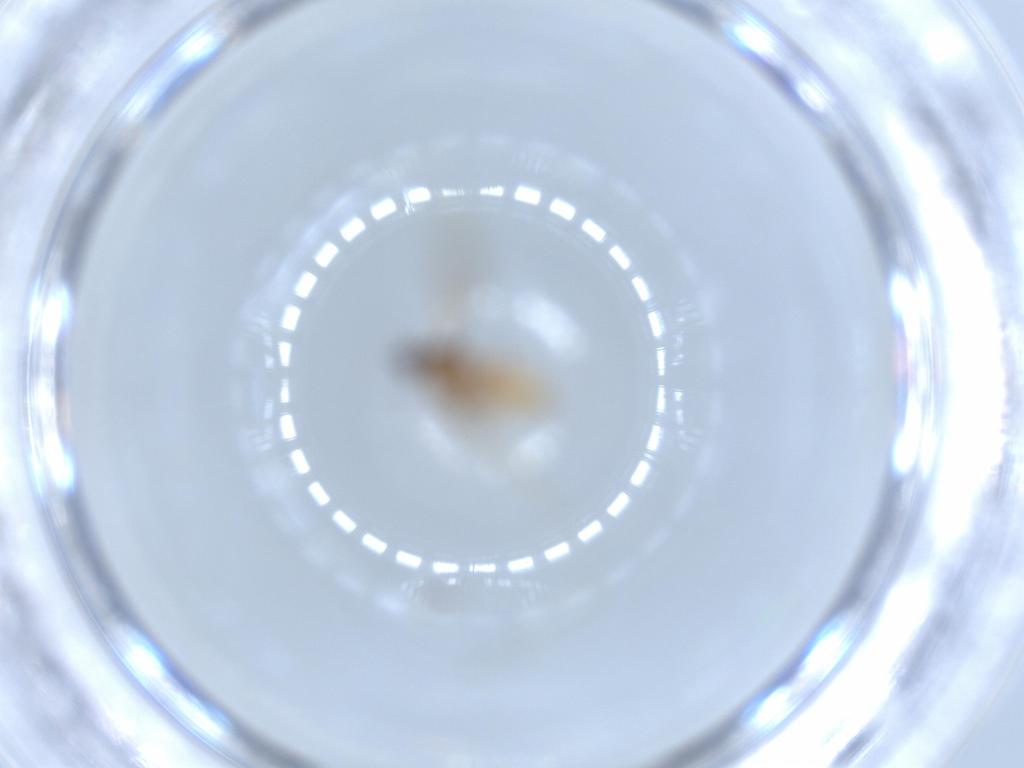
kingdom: Animalia
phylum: Arthropoda
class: Insecta
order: Diptera
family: Cecidomyiidae
